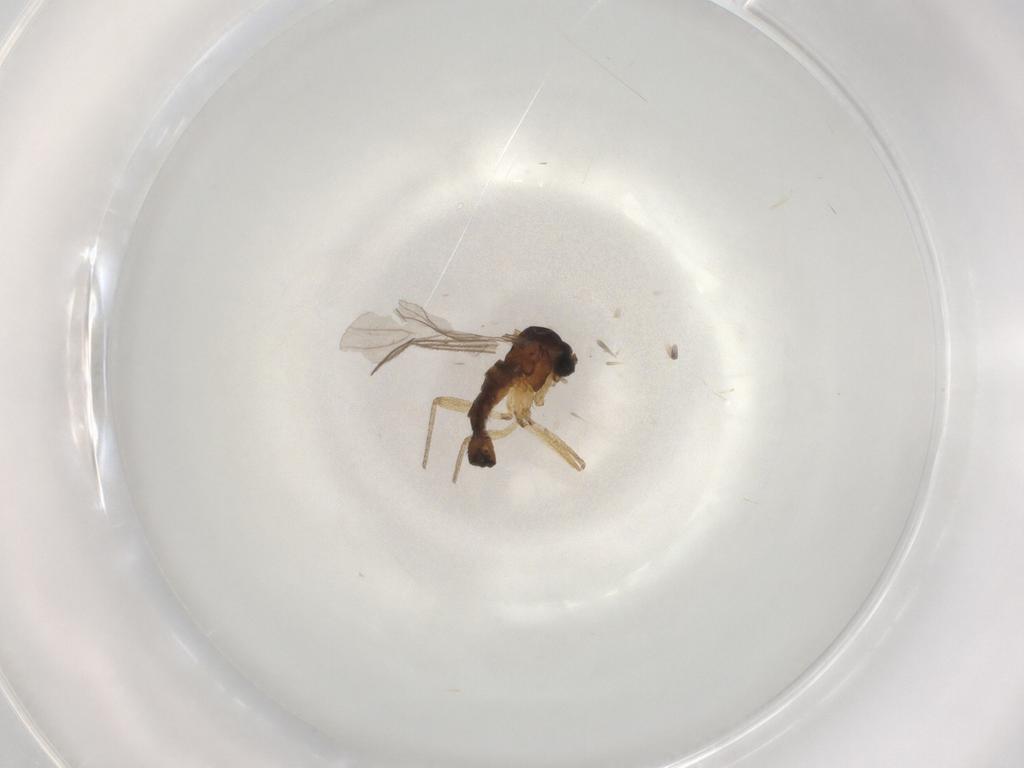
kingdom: Animalia
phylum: Arthropoda
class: Insecta
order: Diptera
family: Sciaridae
